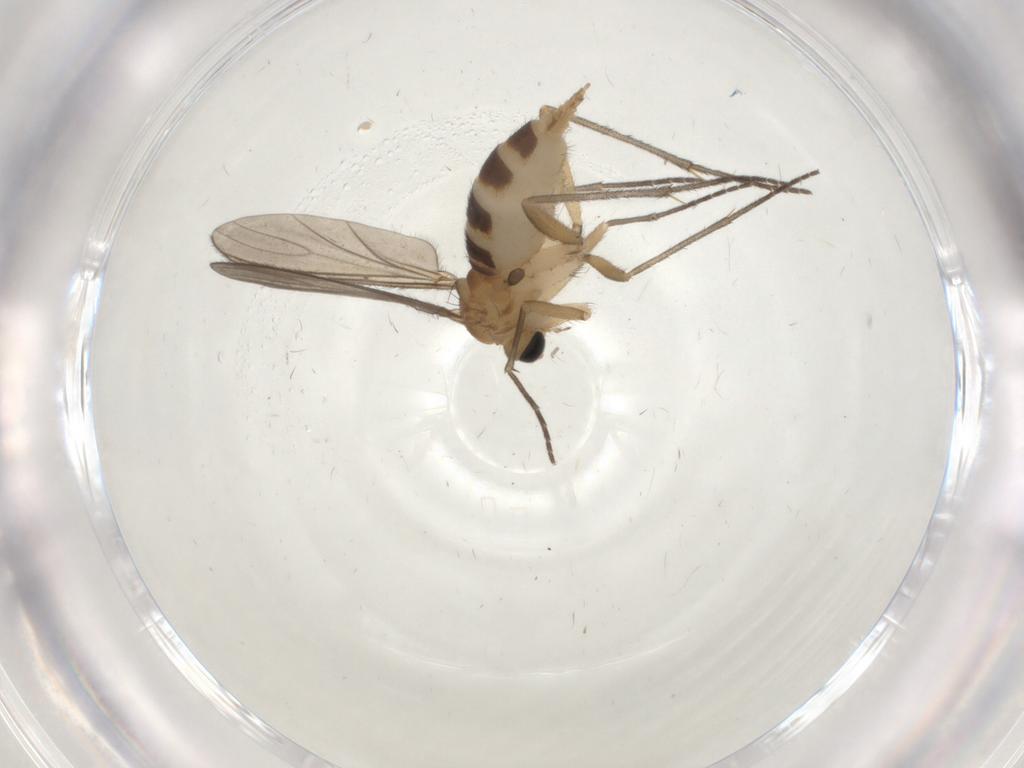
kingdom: Animalia
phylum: Arthropoda
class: Insecta
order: Diptera
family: Sciaridae
